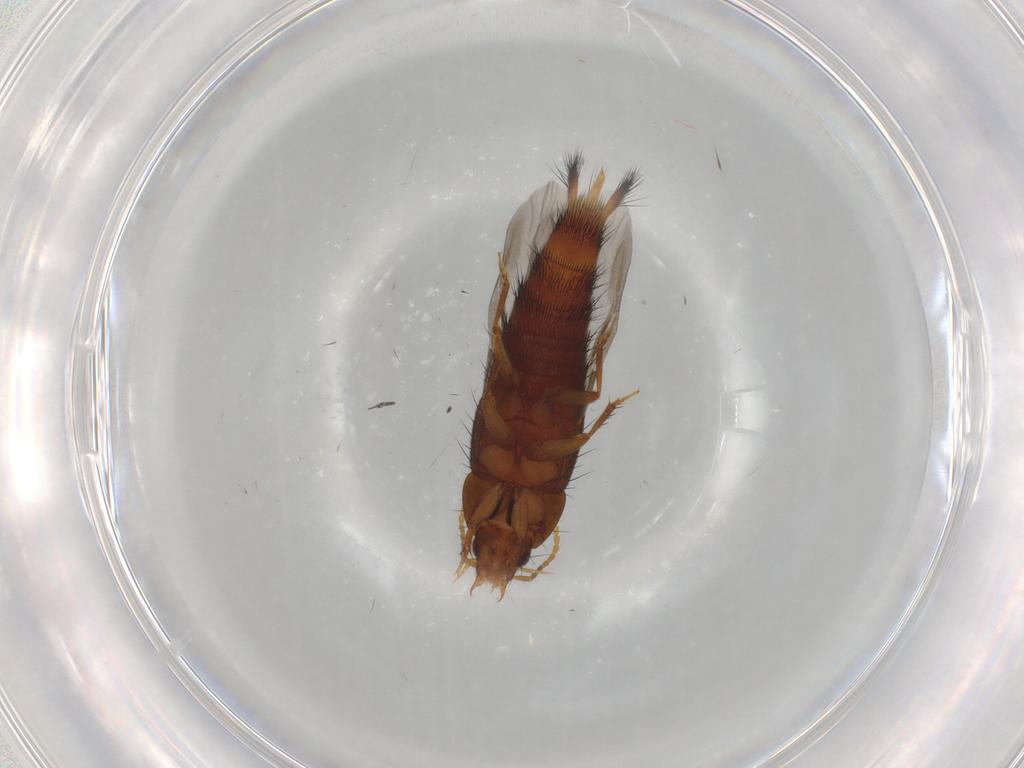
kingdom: Animalia
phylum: Arthropoda
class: Insecta
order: Coleoptera
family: Staphylinidae
